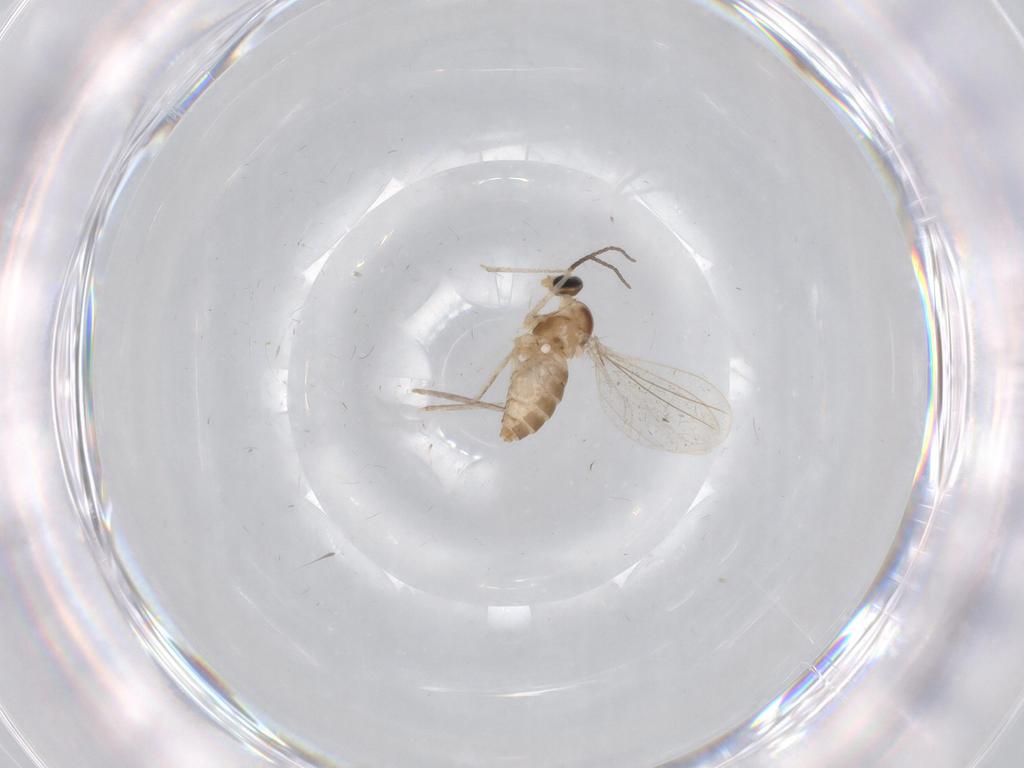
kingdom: Animalia
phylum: Arthropoda
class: Insecta
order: Diptera
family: Cecidomyiidae
